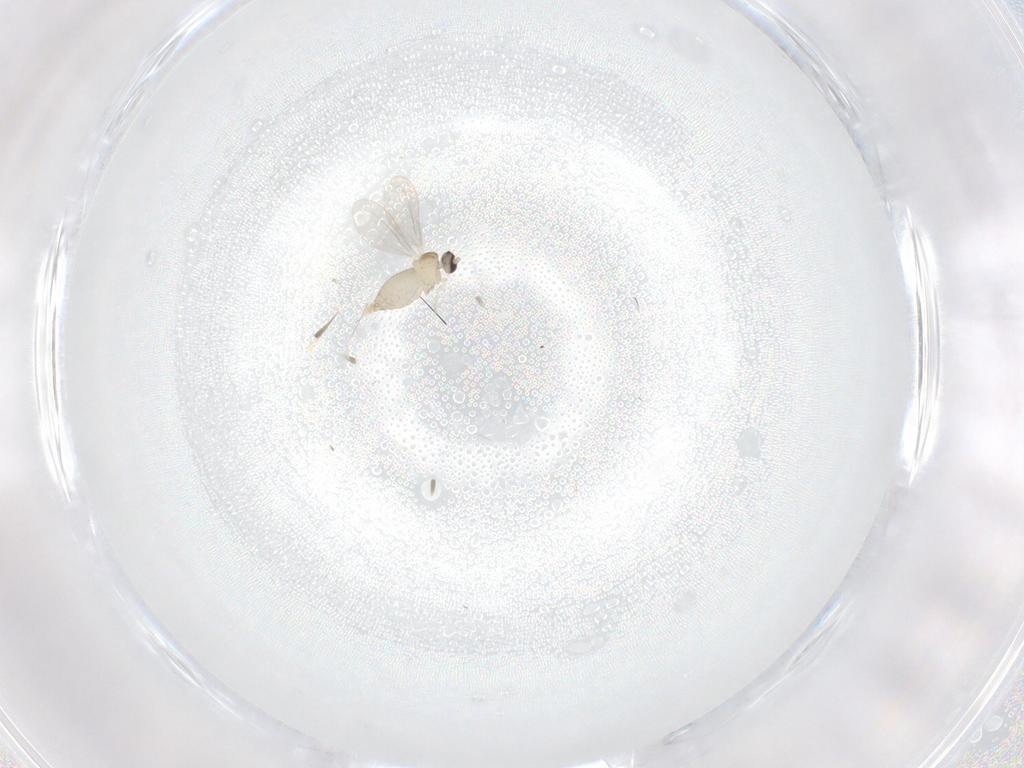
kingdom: Animalia
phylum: Arthropoda
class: Insecta
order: Diptera
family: Cecidomyiidae
